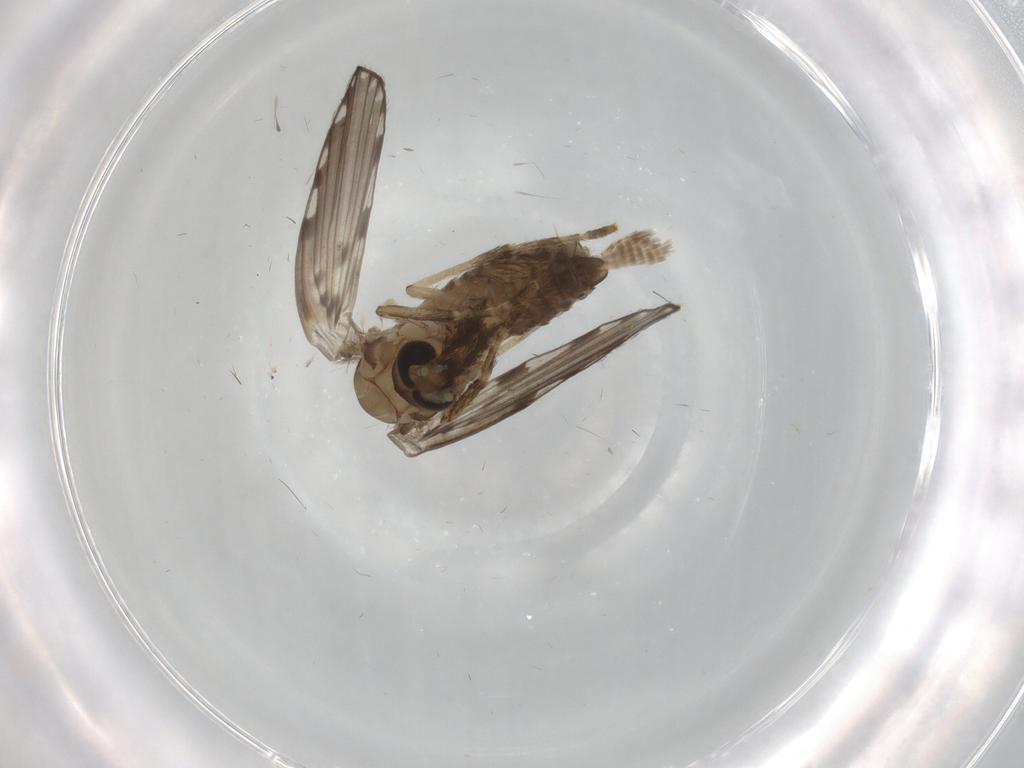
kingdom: Animalia
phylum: Arthropoda
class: Insecta
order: Diptera
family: Psychodidae
